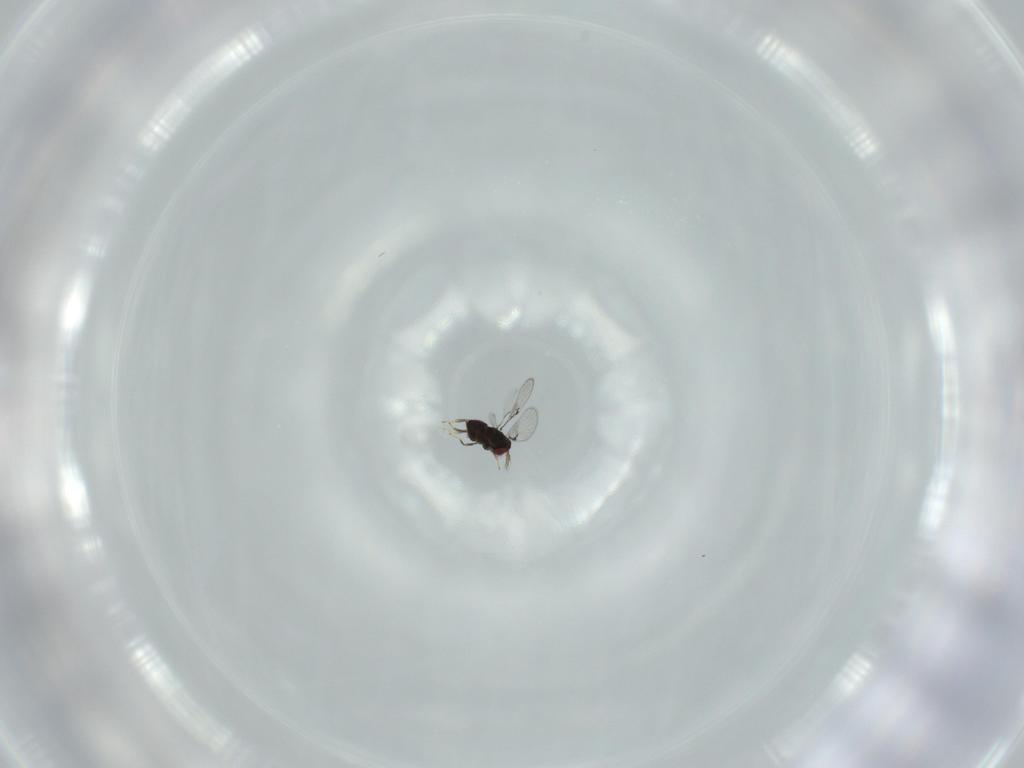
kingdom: Animalia
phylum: Arthropoda
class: Insecta
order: Hymenoptera
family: Trichogrammatidae
